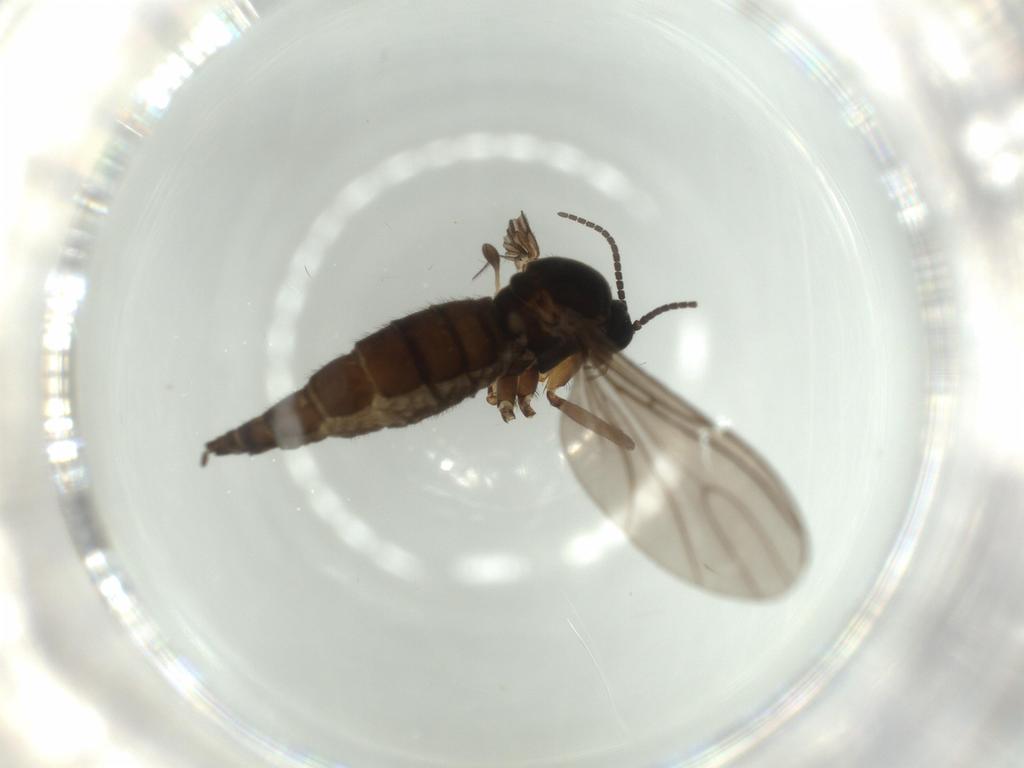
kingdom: Animalia
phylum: Arthropoda
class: Insecta
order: Diptera
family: Sciaridae
